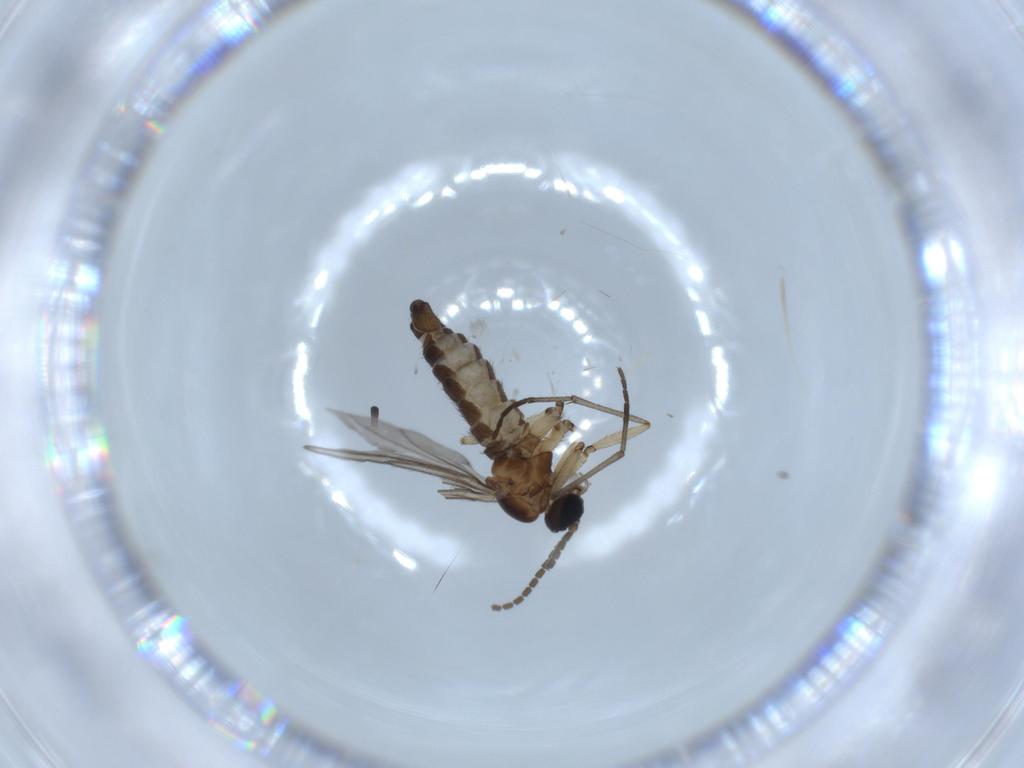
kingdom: Animalia
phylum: Arthropoda
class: Insecta
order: Diptera
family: Sciaridae
